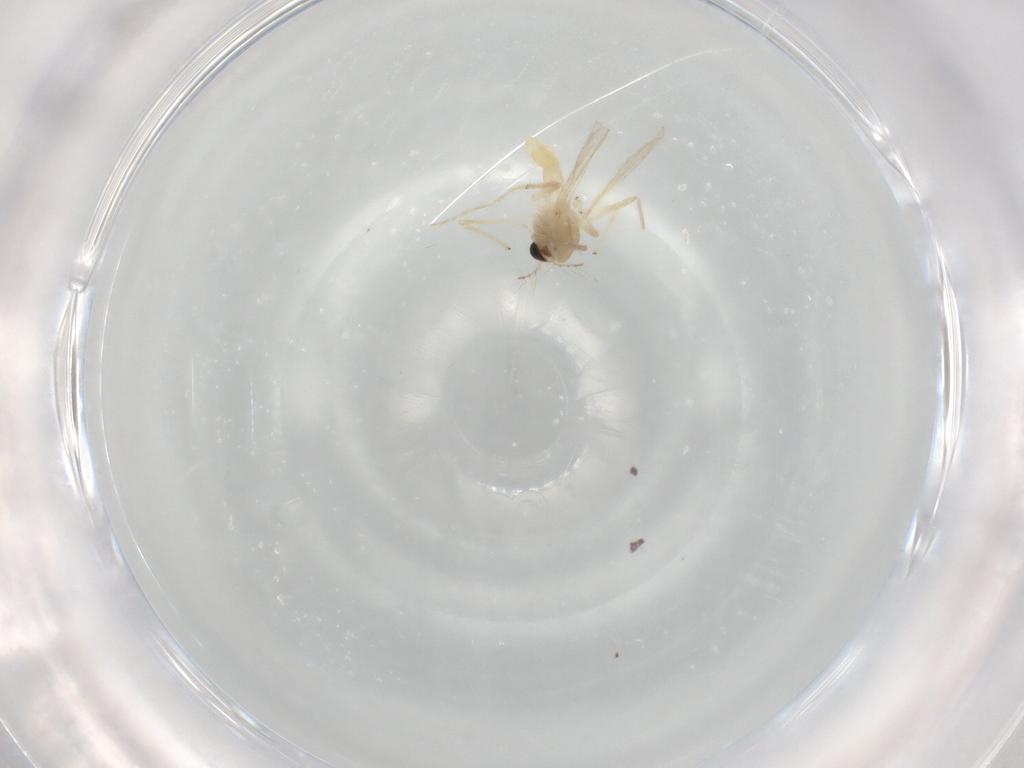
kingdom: Animalia
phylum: Arthropoda
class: Insecta
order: Diptera
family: Chironomidae
